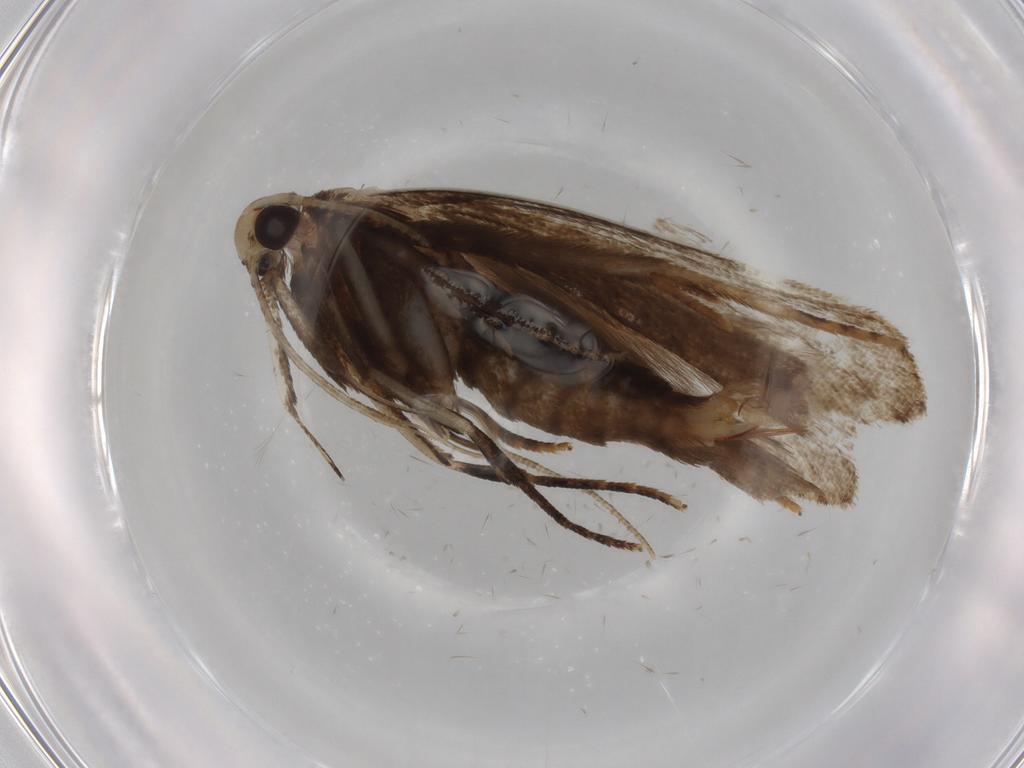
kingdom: Animalia
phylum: Arthropoda
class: Insecta
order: Lepidoptera
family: Cosmopterigidae
